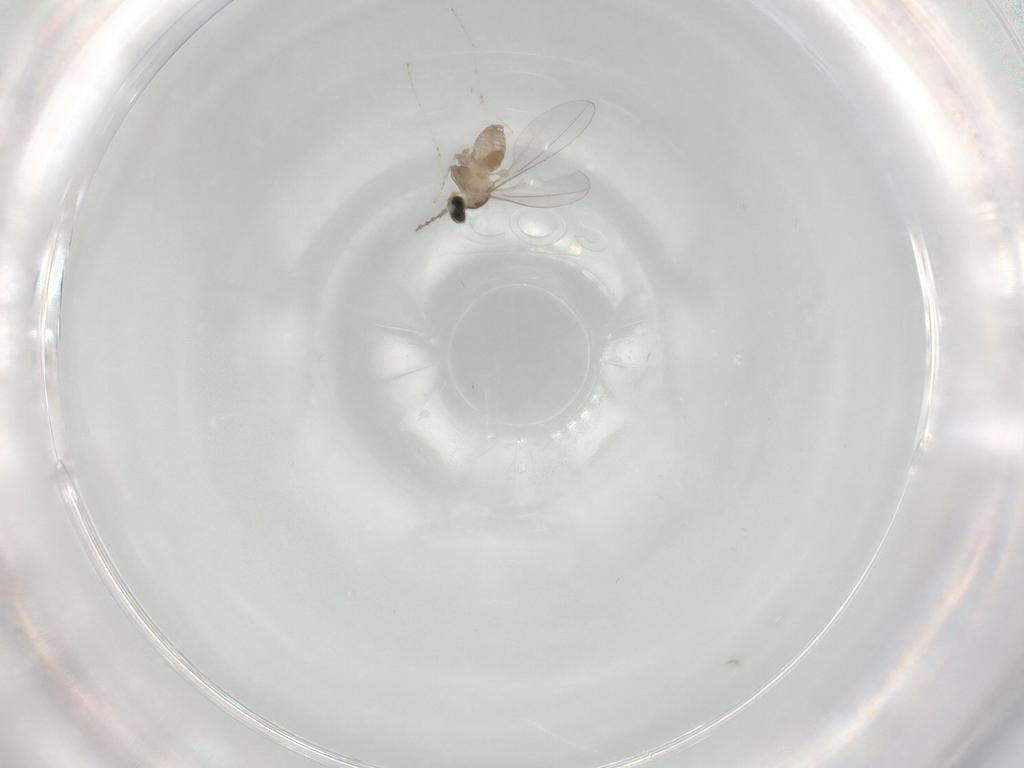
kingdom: Animalia
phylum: Arthropoda
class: Insecta
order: Diptera
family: Cecidomyiidae
